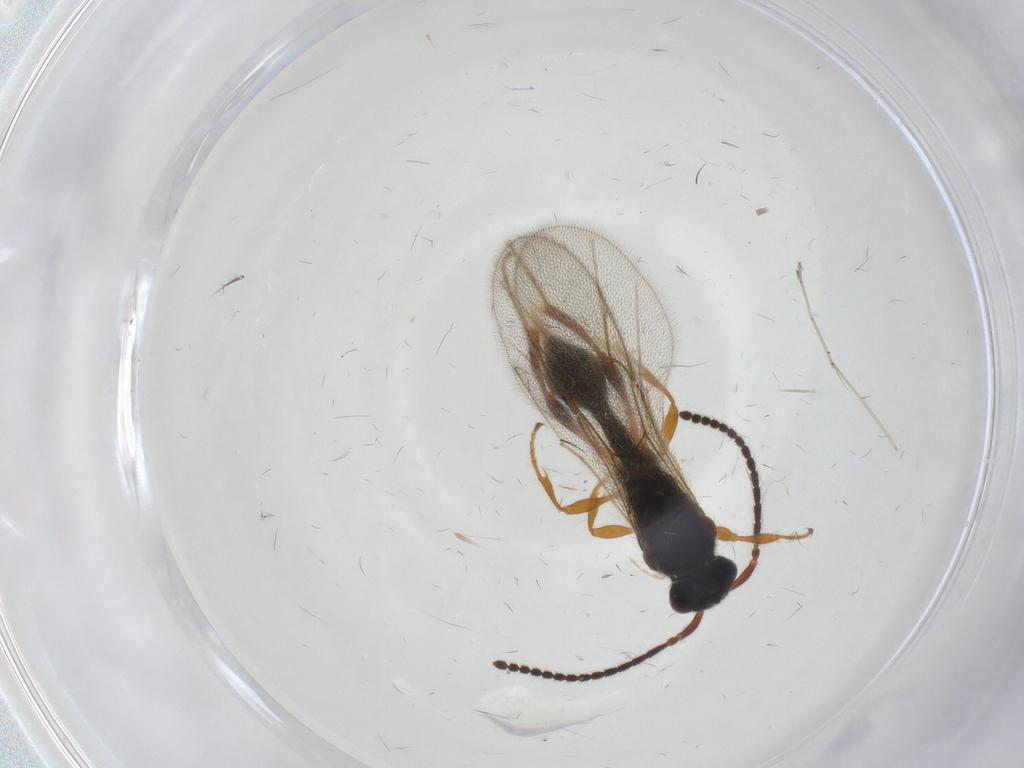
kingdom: Animalia
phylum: Arthropoda
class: Insecta
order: Hymenoptera
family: Diapriidae
